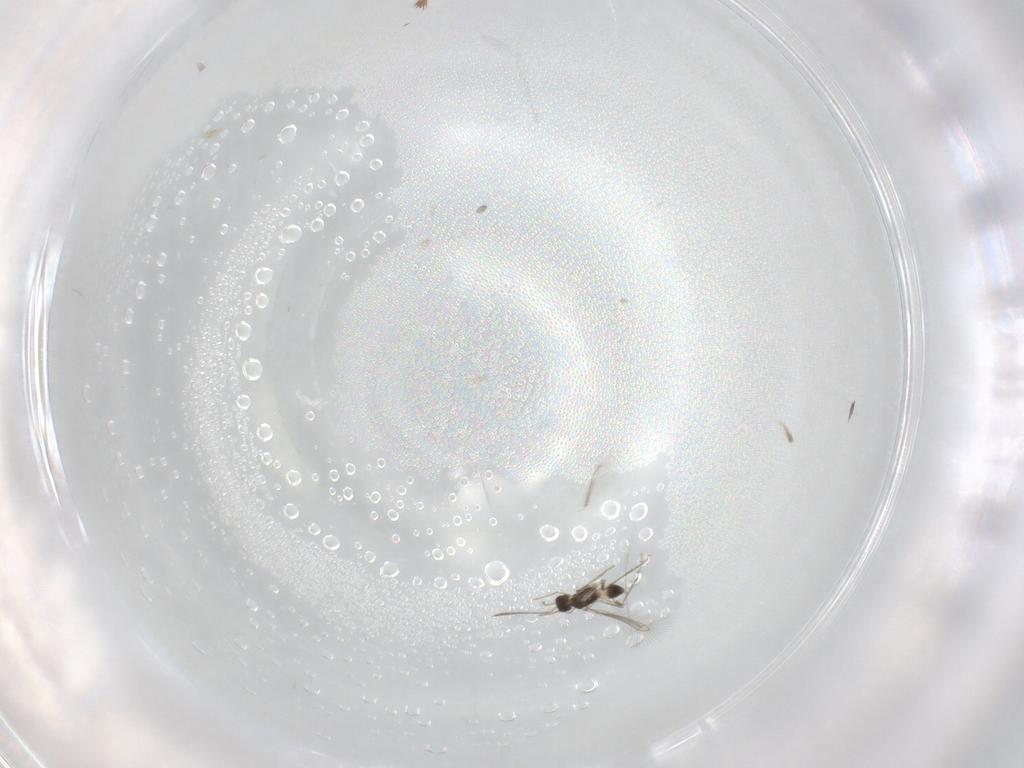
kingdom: Animalia
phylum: Arthropoda
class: Insecta
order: Hymenoptera
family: Mymaridae
